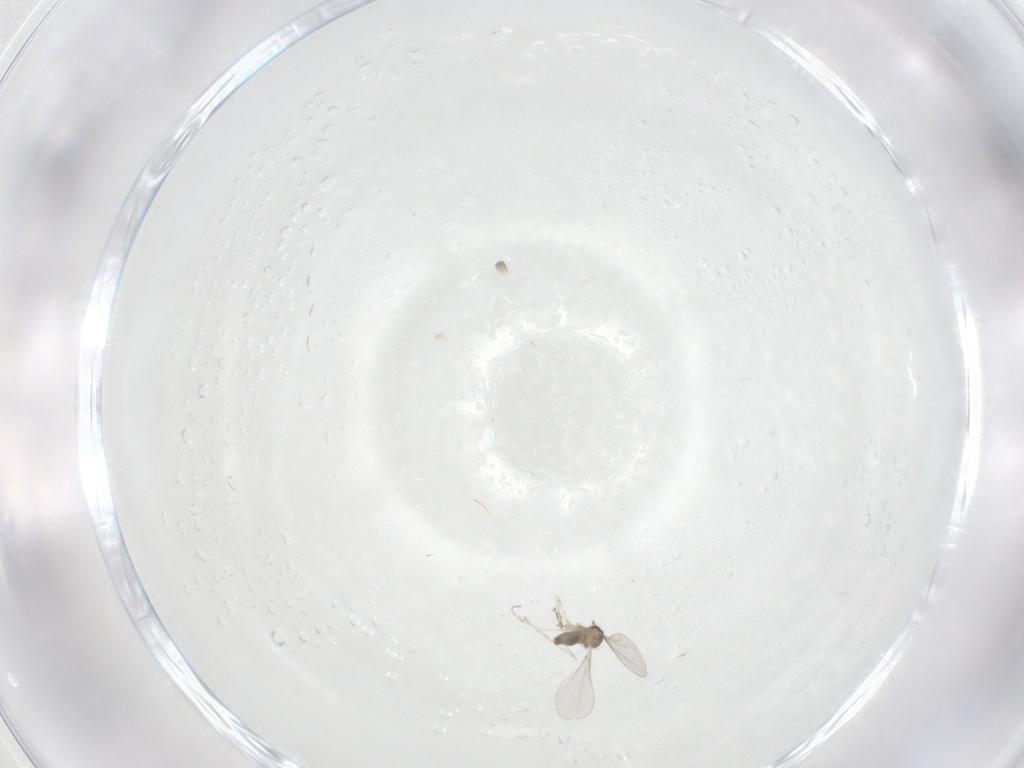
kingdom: Animalia
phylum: Arthropoda
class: Insecta
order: Diptera
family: Cecidomyiidae
